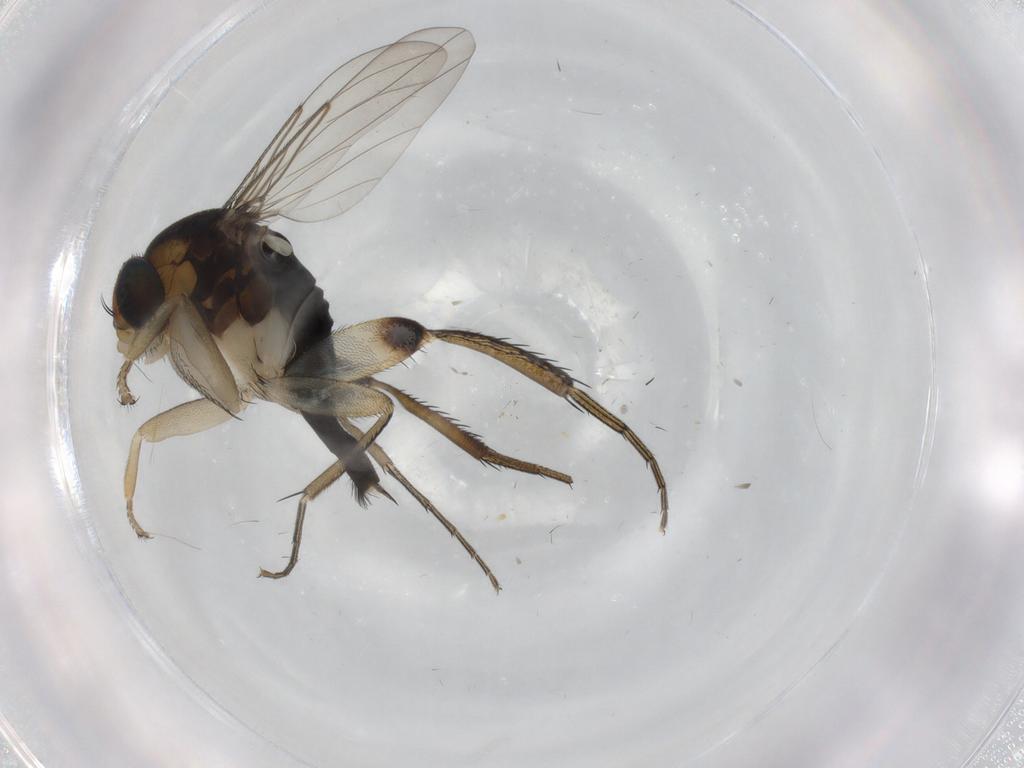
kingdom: Animalia
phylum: Arthropoda
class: Insecta
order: Diptera
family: Phoridae
